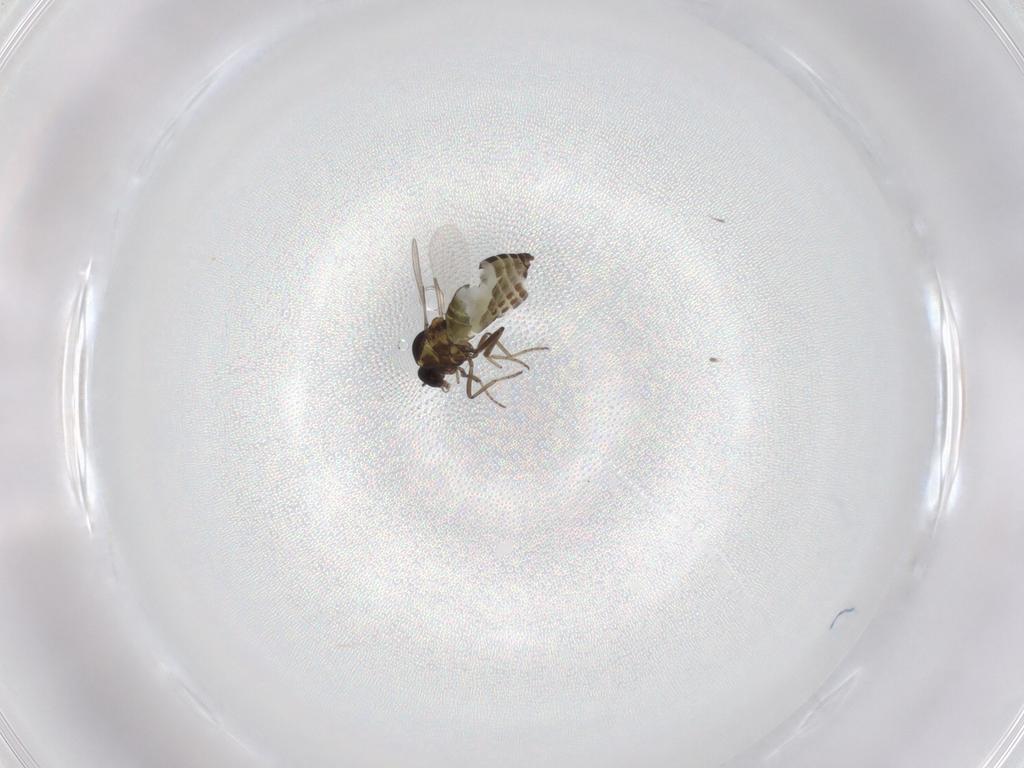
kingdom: Animalia
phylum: Arthropoda
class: Insecta
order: Diptera
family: Ceratopogonidae
